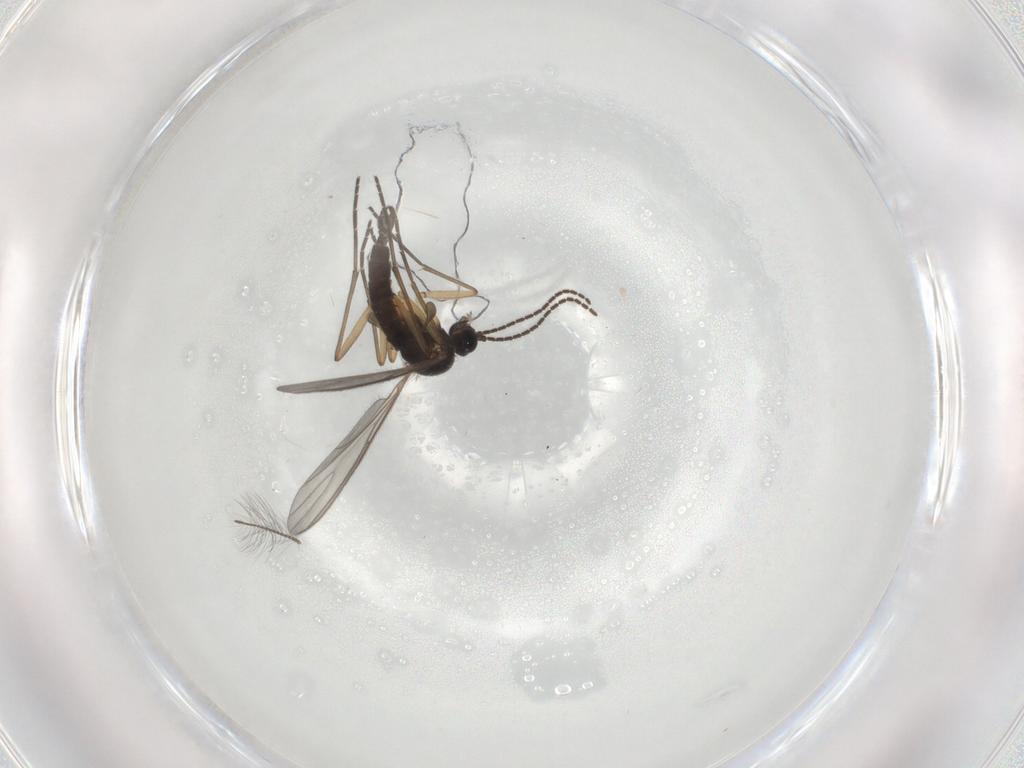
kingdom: Animalia
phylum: Arthropoda
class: Insecta
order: Diptera
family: Sciaridae
